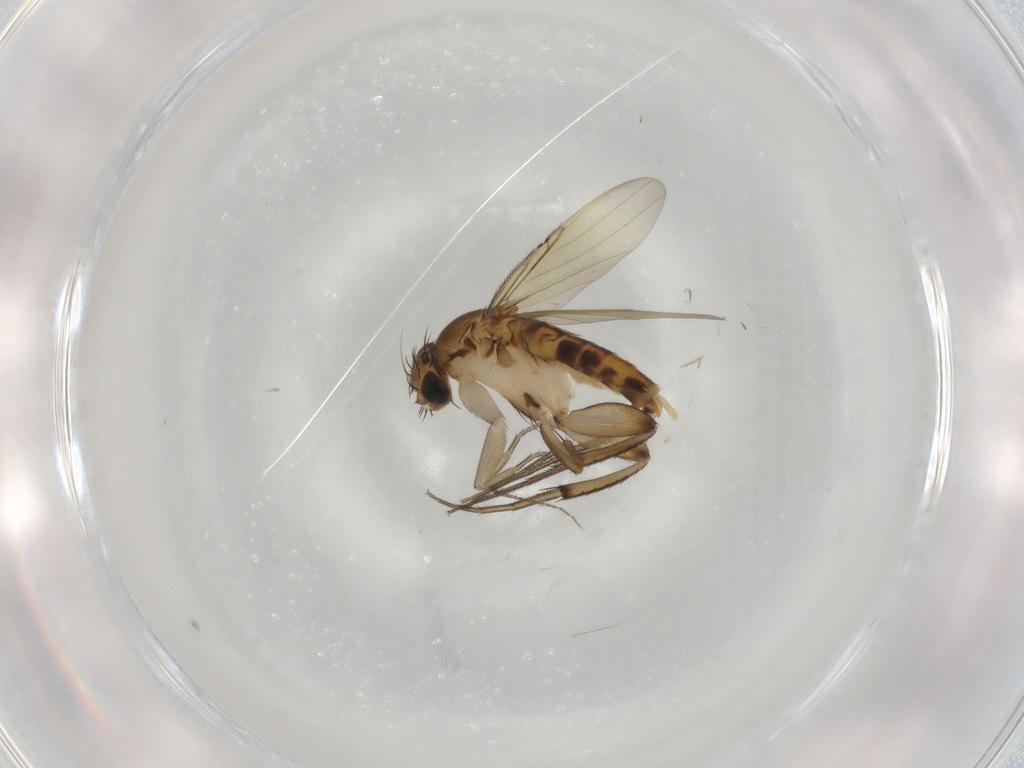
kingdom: Animalia
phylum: Arthropoda
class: Insecta
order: Diptera
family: Ceratopogonidae
